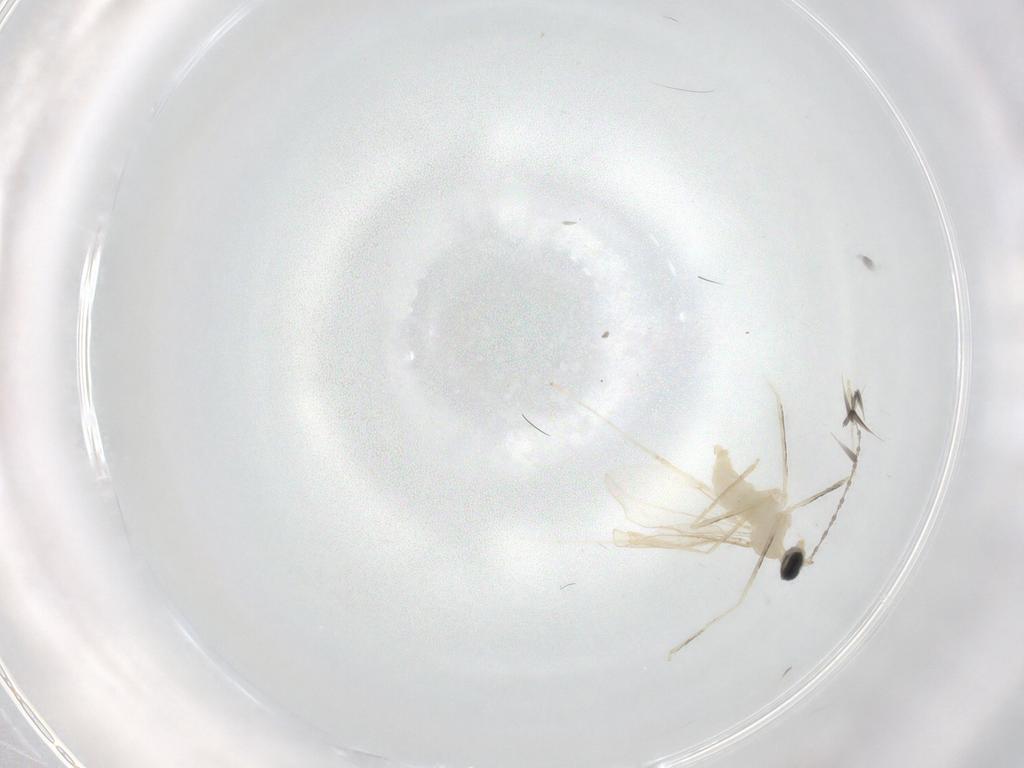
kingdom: Animalia
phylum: Arthropoda
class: Insecta
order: Diptera
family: Cecidomyiidae
